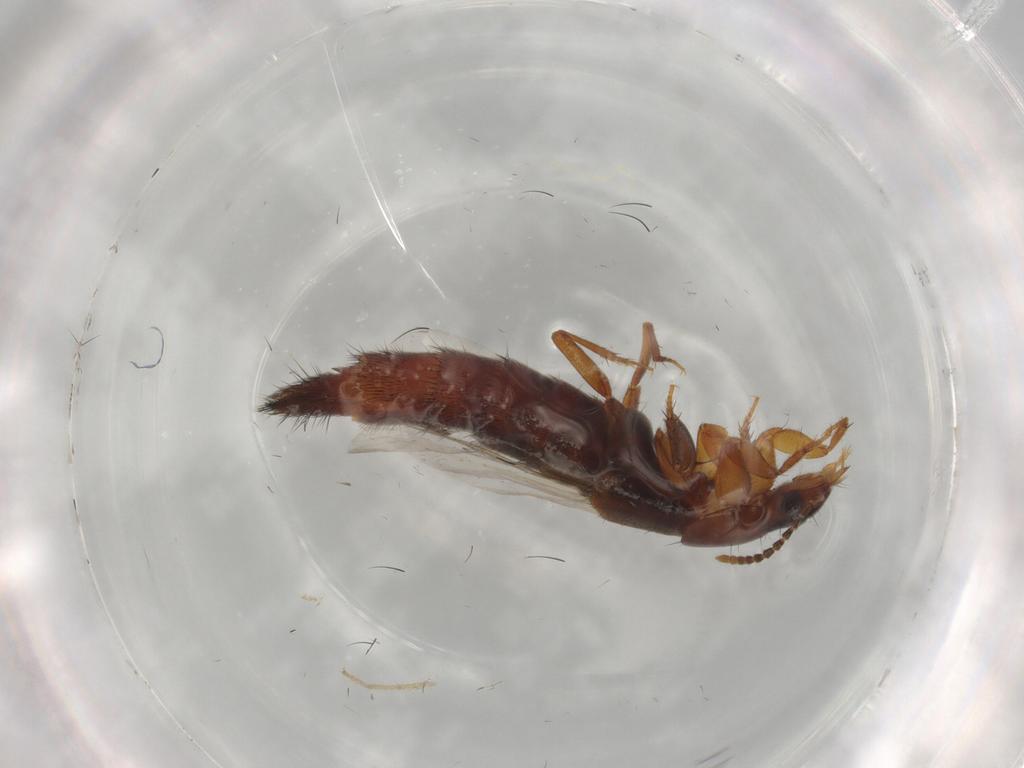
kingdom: Animalia
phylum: Arthropoda
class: Insecta
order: Coleoptera
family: Staphylinidae
